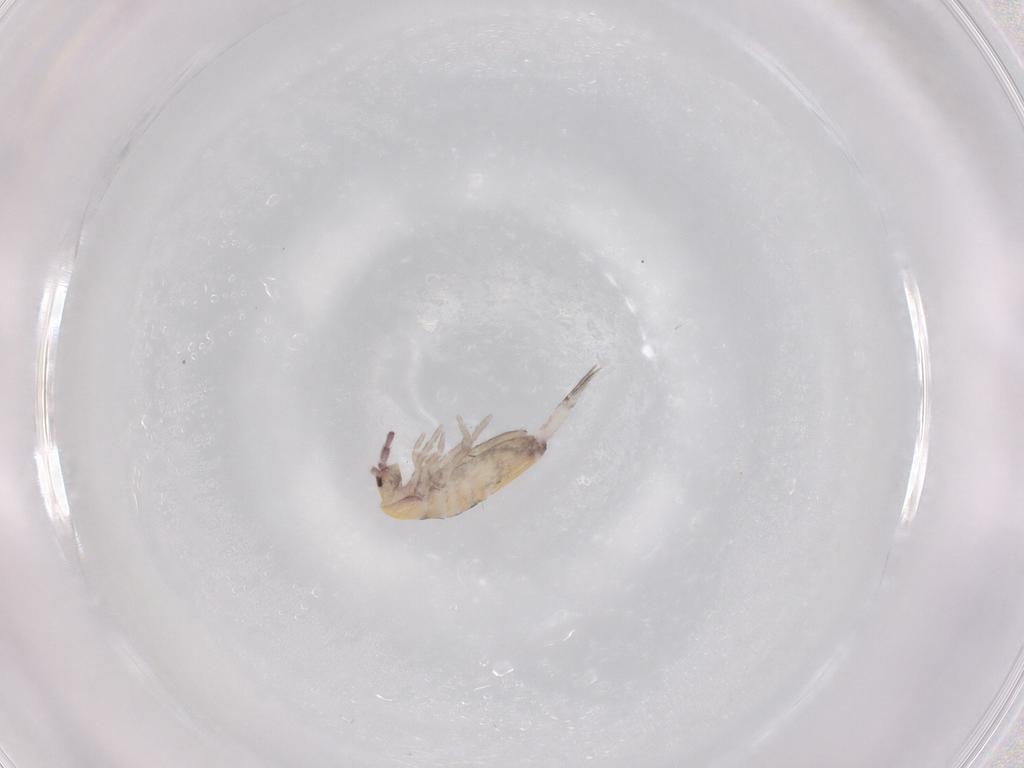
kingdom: Animalia
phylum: Arthropoda
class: Collembola
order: Entomobryomorpha
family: Entomobryidae
